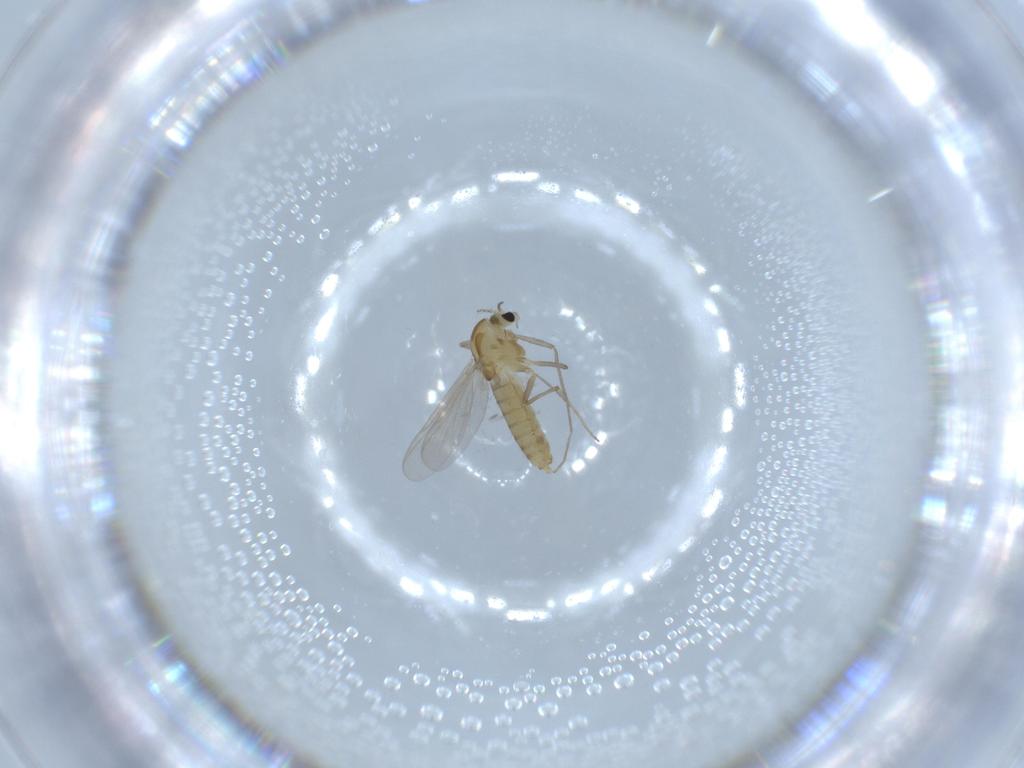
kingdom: Animalia
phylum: Arthropoda
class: Insecta
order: Diptera
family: Chironomidae
